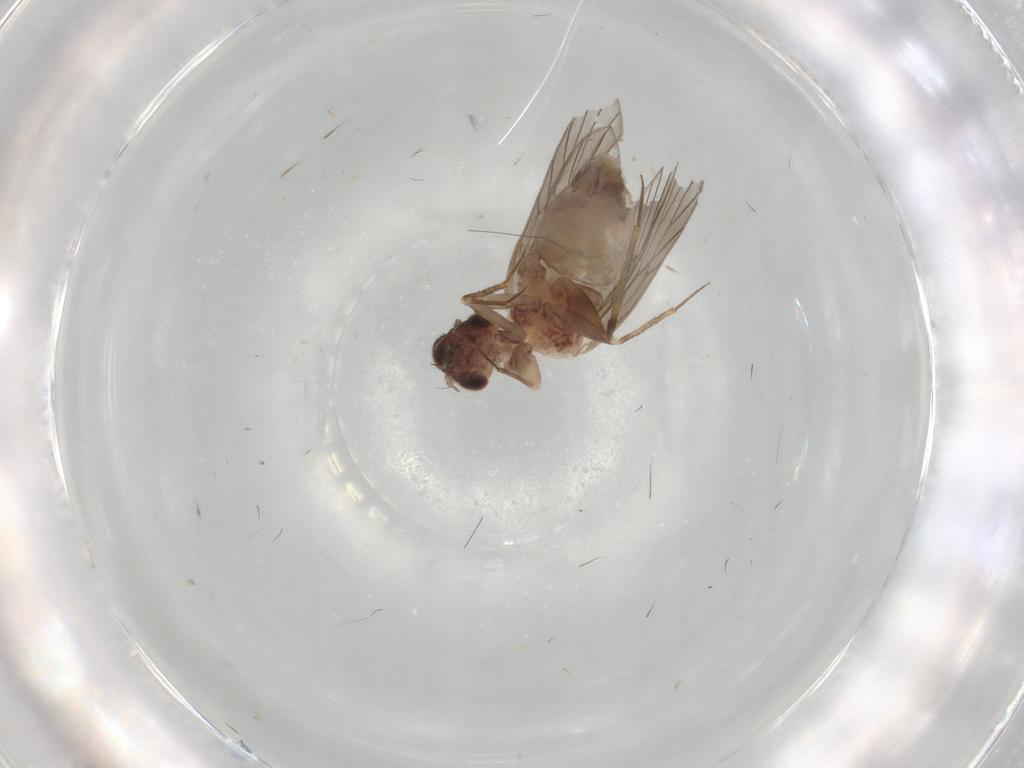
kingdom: Animalia
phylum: Arthropoda
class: Insecta
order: Psocodea
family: Lepidopsocidae
